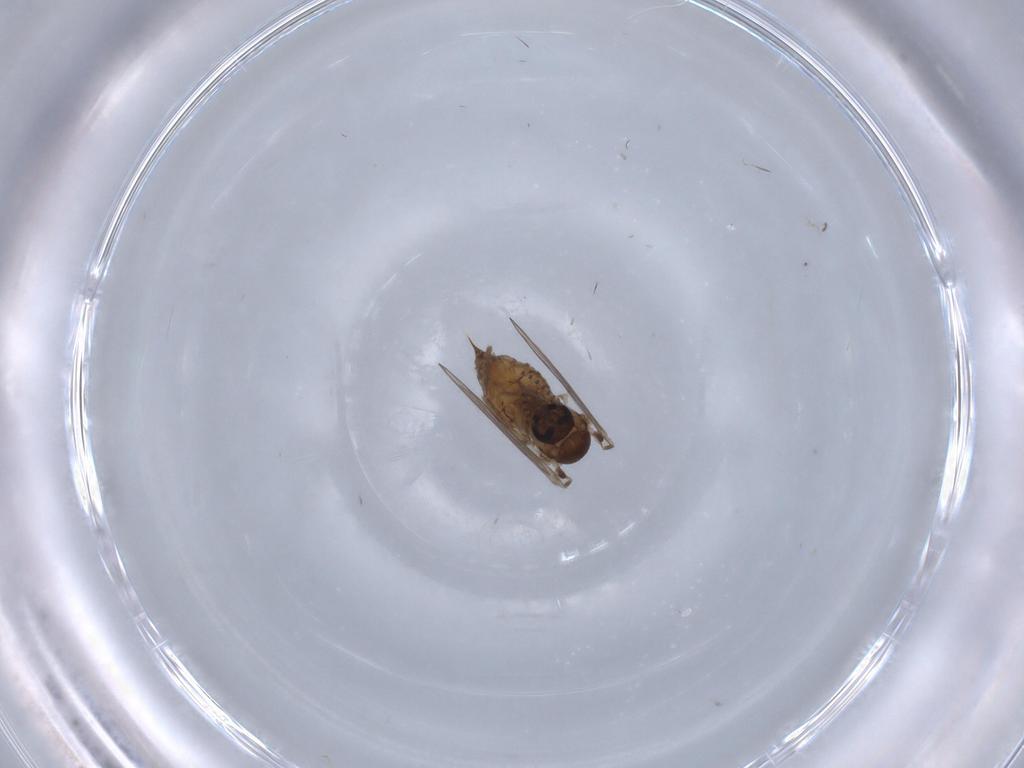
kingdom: Animalia
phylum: Arthropoda
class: Insecta
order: Diptera
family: Psychodidae
